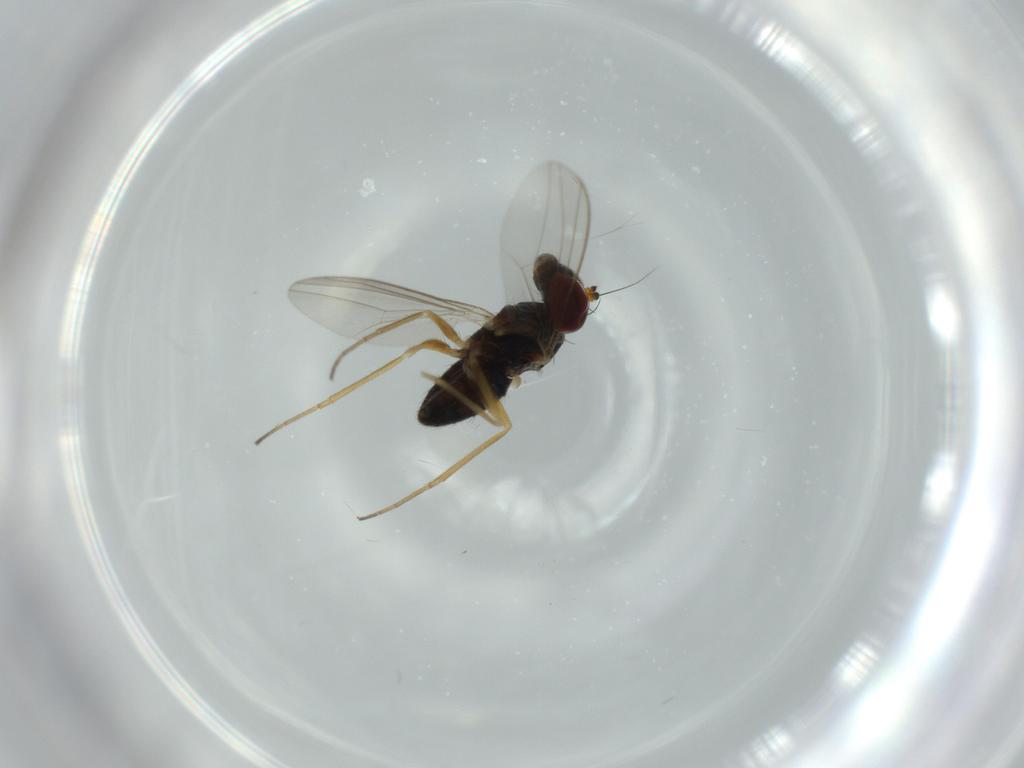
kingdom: Animalia
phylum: Arthropoda
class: Insecta
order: Diptera
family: Ceratopogonidae
